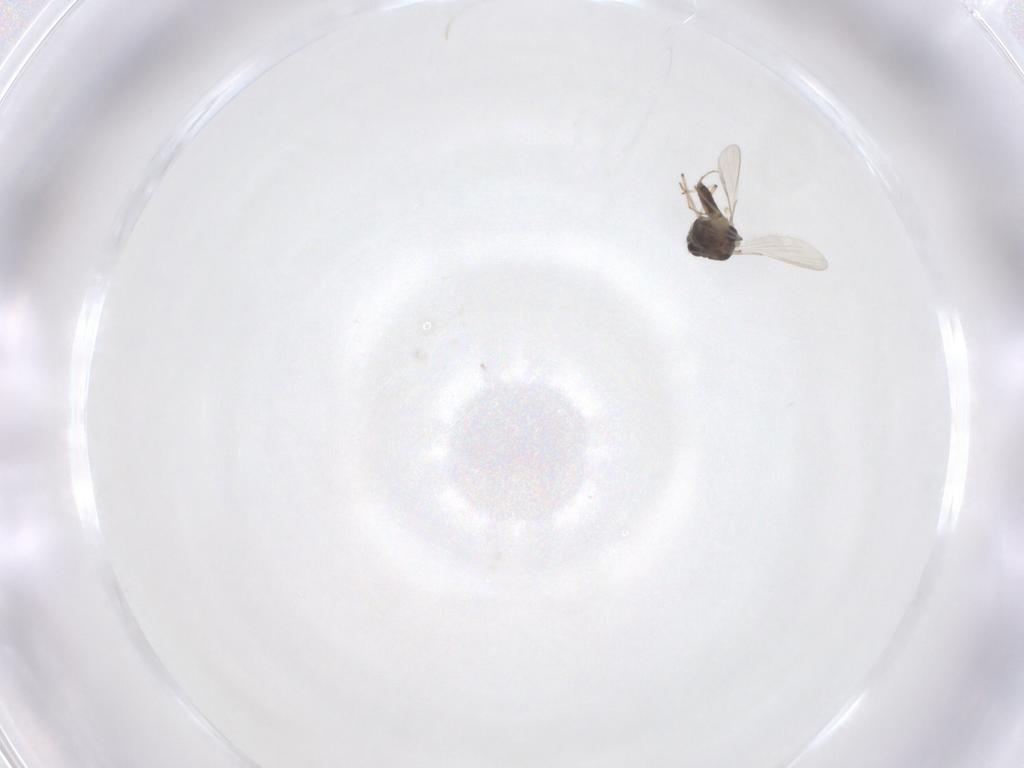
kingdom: Animalia
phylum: Arthropoda
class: Insecta
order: Diptera
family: Chironomidae
